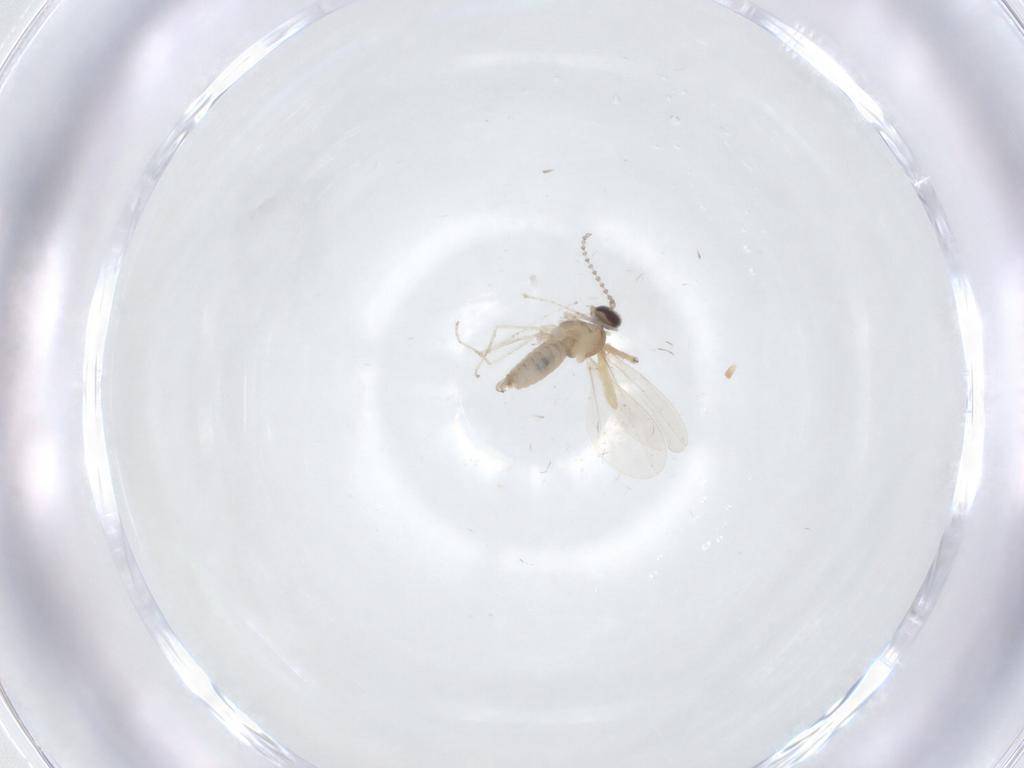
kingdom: Animalia
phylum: Arthropoda
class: Insecta
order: Diptera
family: Chironomidae
